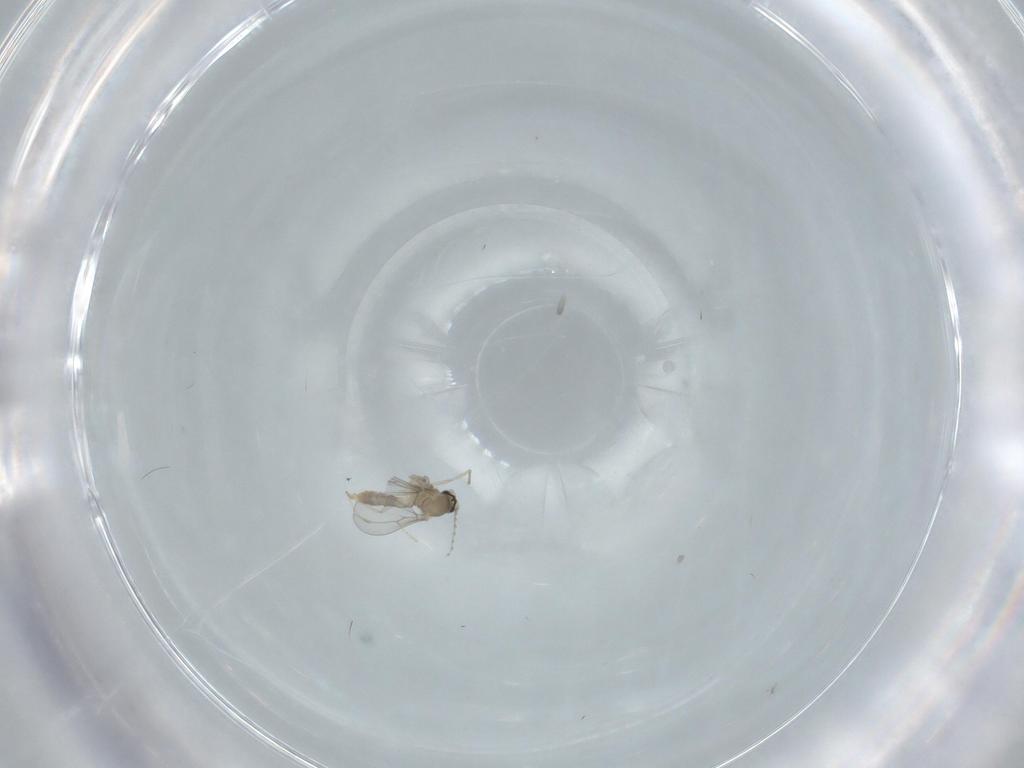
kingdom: Animalia
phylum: Arthropoda
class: Insecta
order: Diptera
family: Cecidomyiidae
